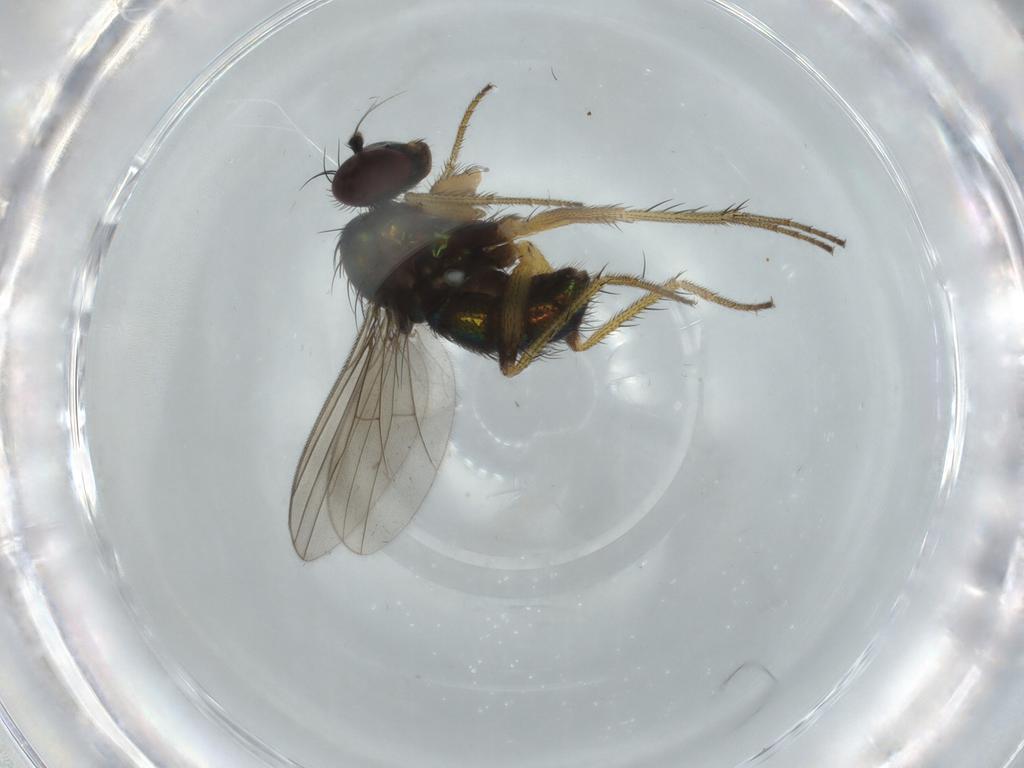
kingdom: Animalia
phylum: Arthropoda
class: Insecta
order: Diptera
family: Dolichopodidae
